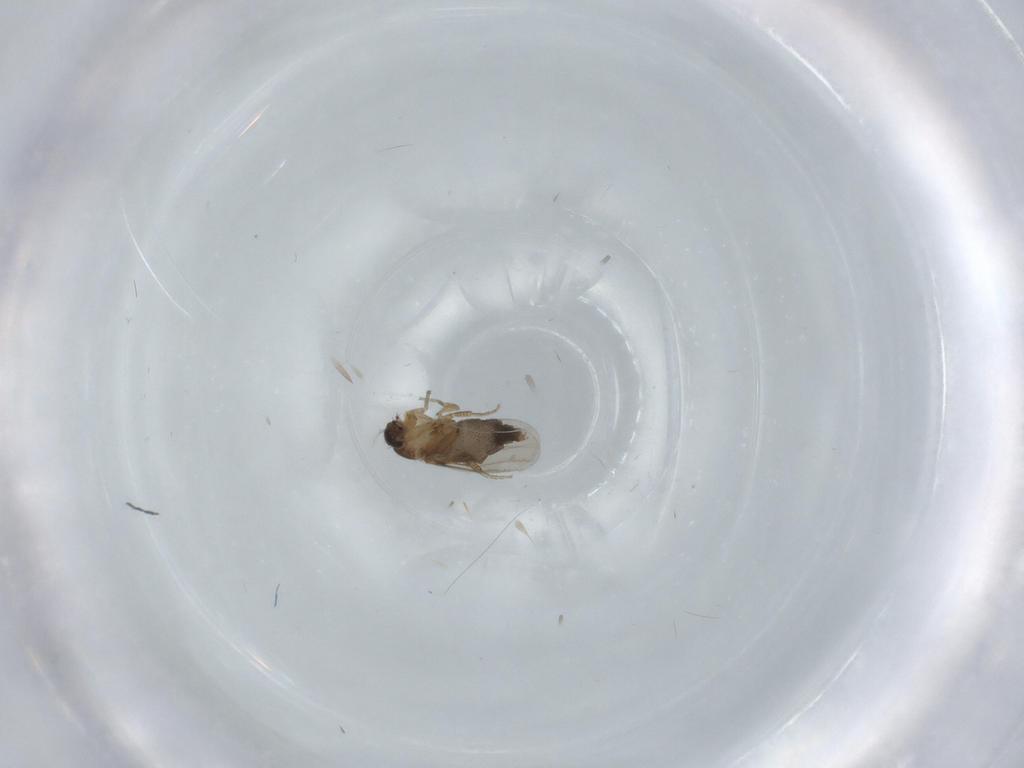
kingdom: Animalia
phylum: Arthropoda
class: Insecta
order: Diptera
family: Phoridae
